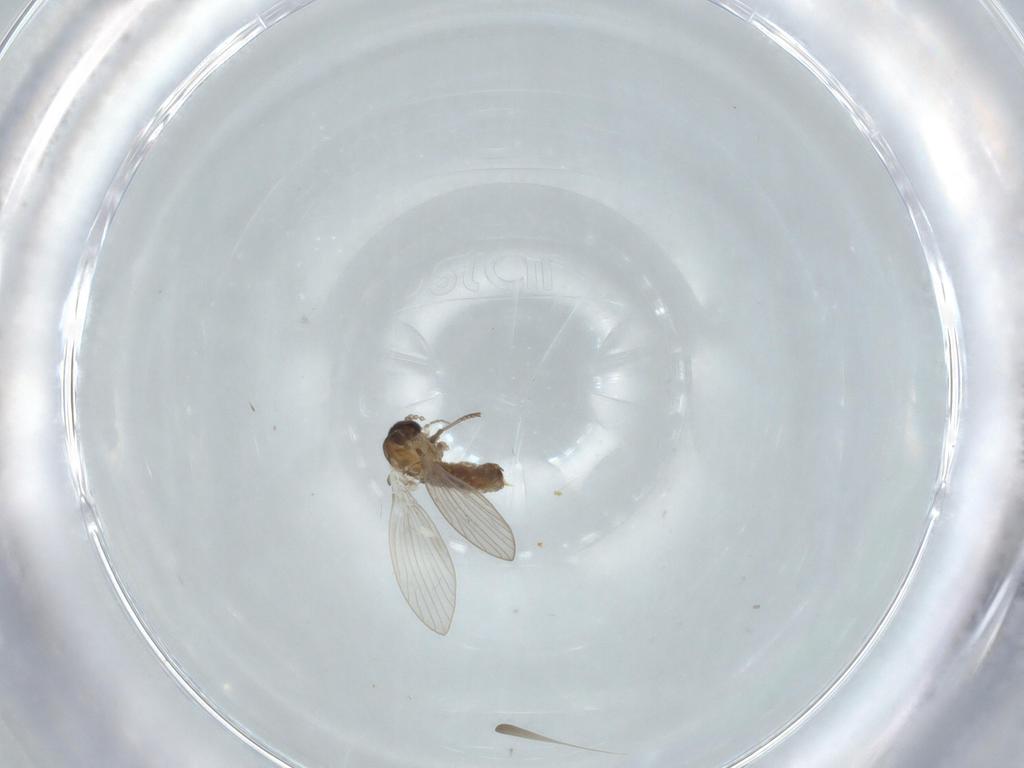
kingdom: Animalia
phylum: Arthropoda
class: Insecta
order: Diptera
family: Psychodidae
